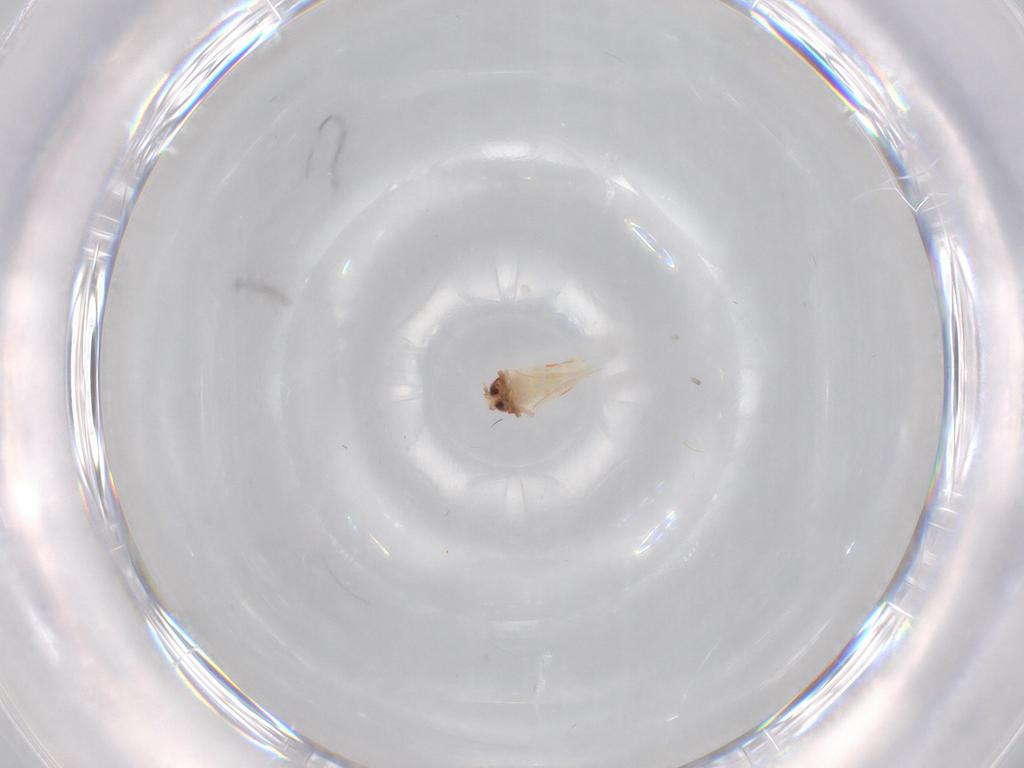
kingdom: Animalia
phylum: Arthropoda
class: Insecta
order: Hemiptera
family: Aleyrodidae
